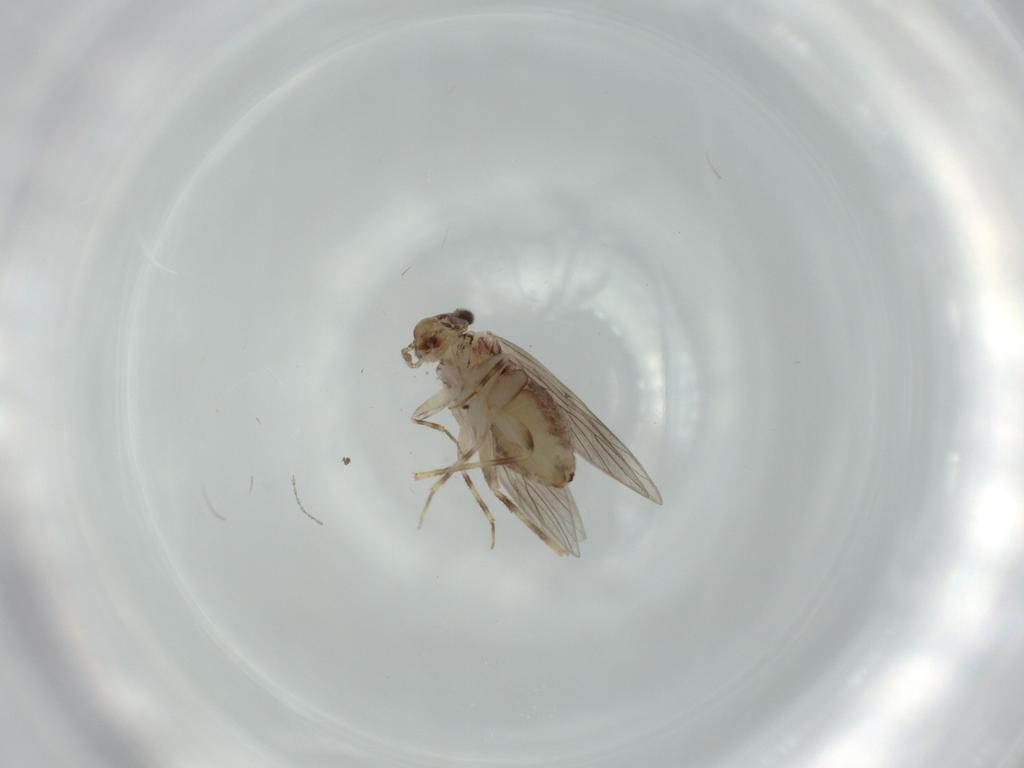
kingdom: Animalia
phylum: Arthropoda
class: Insecta
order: Psocodea
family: Lepidopsocidae
